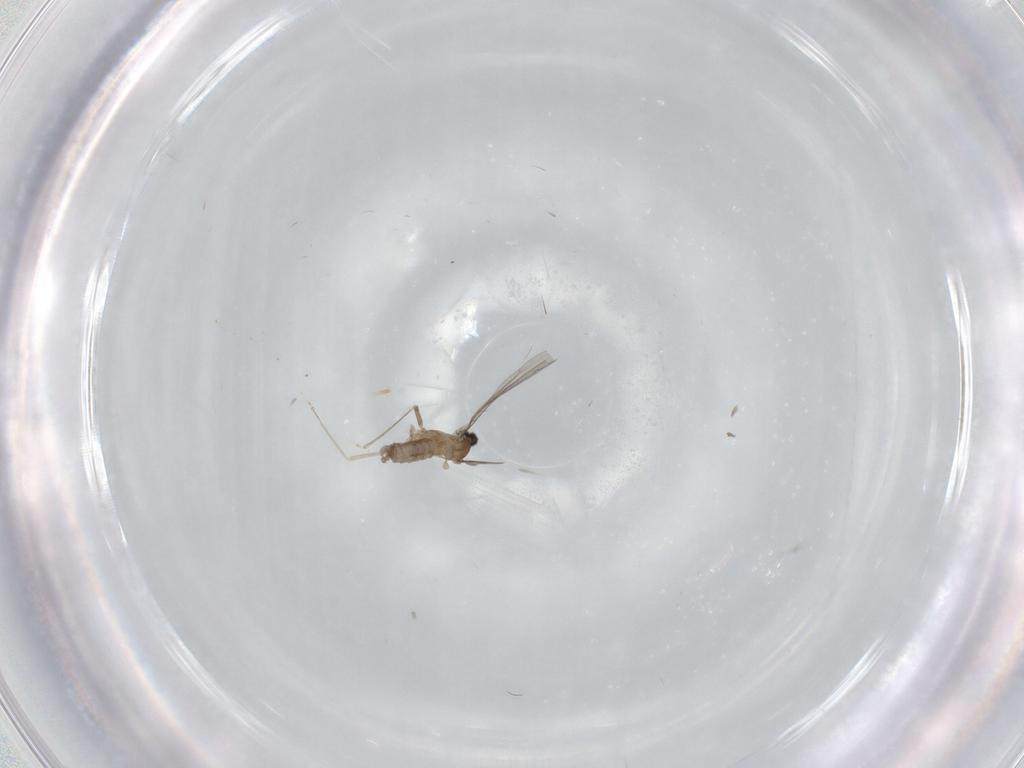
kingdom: Animalia
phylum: Arthropoda
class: Insecta
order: Diptera
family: Cecidomyiidae
